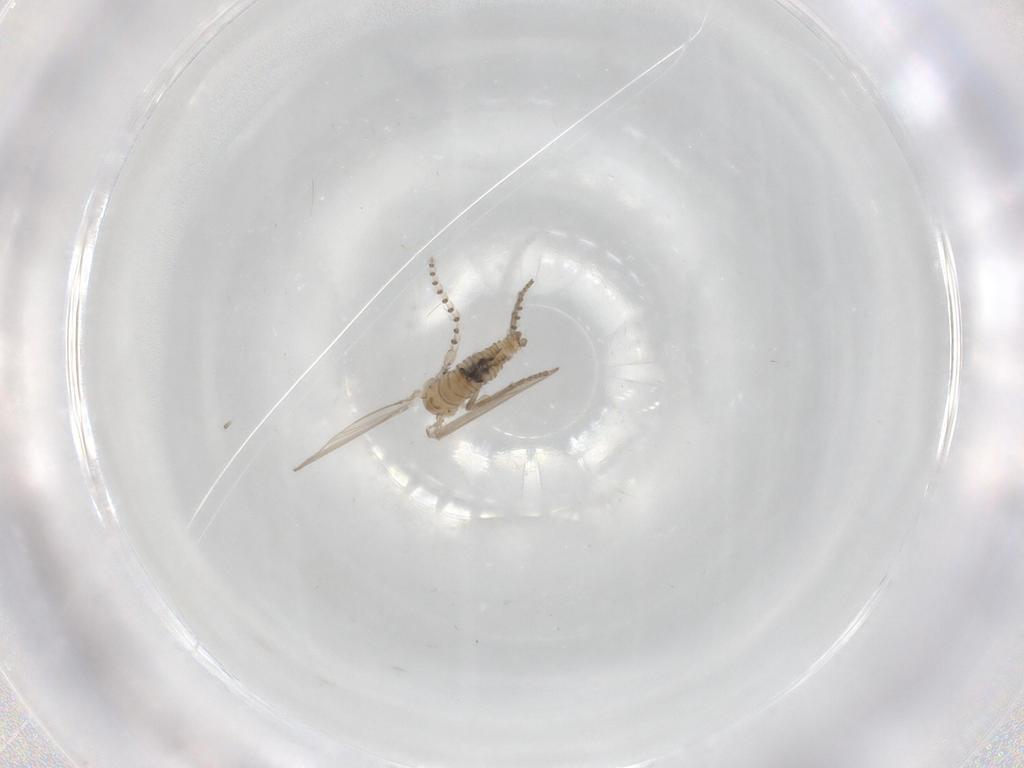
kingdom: Animalia
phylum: Arthropoda
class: Insecta
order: Diptera
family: Psychodidae
